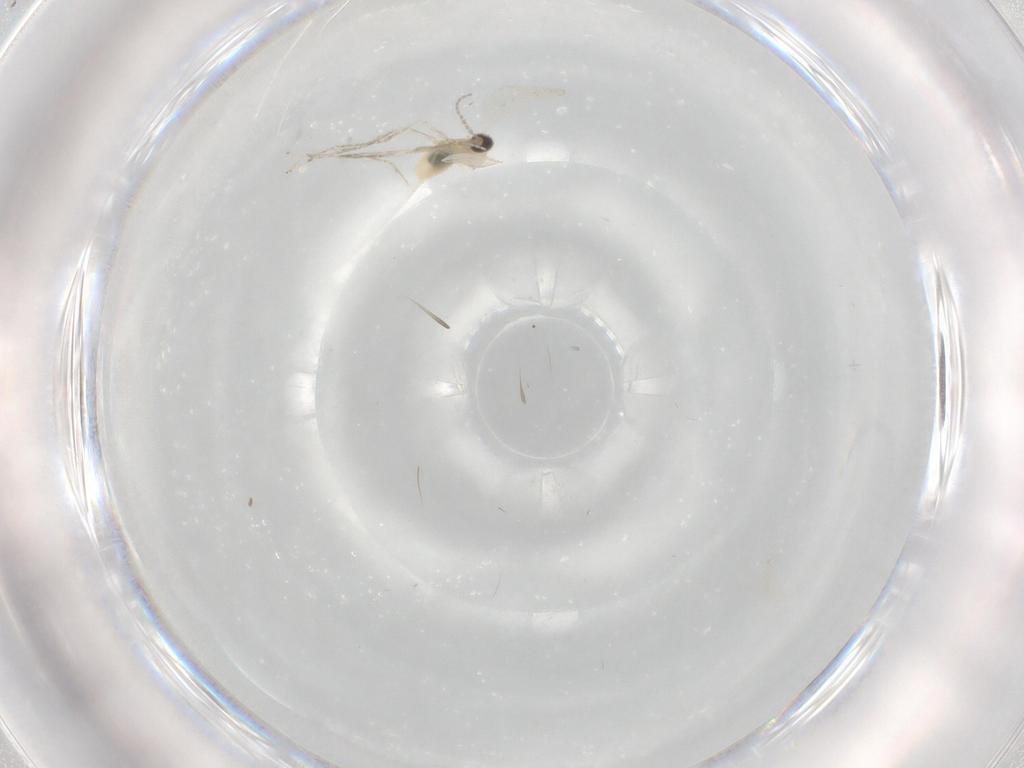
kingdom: Animalia
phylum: Arthropoda
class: Insecta
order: Diptera
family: Cecidomyiidae
